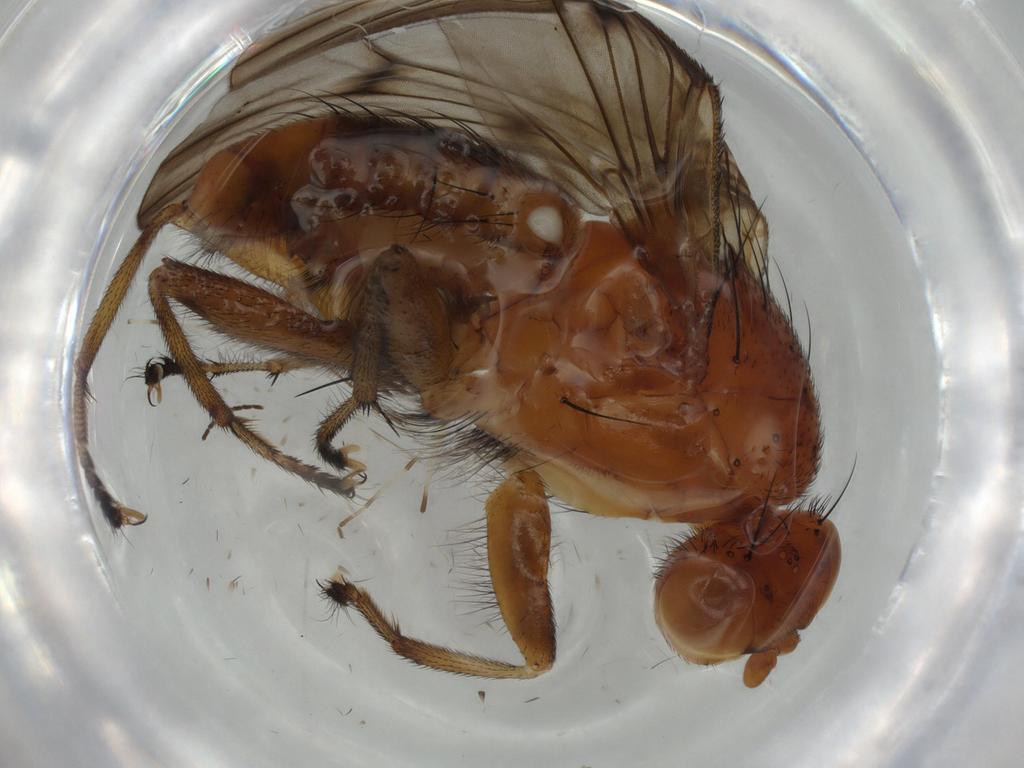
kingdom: Animalia
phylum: Arthropoda
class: Insecta
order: Diptera
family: Heleomyzidae
